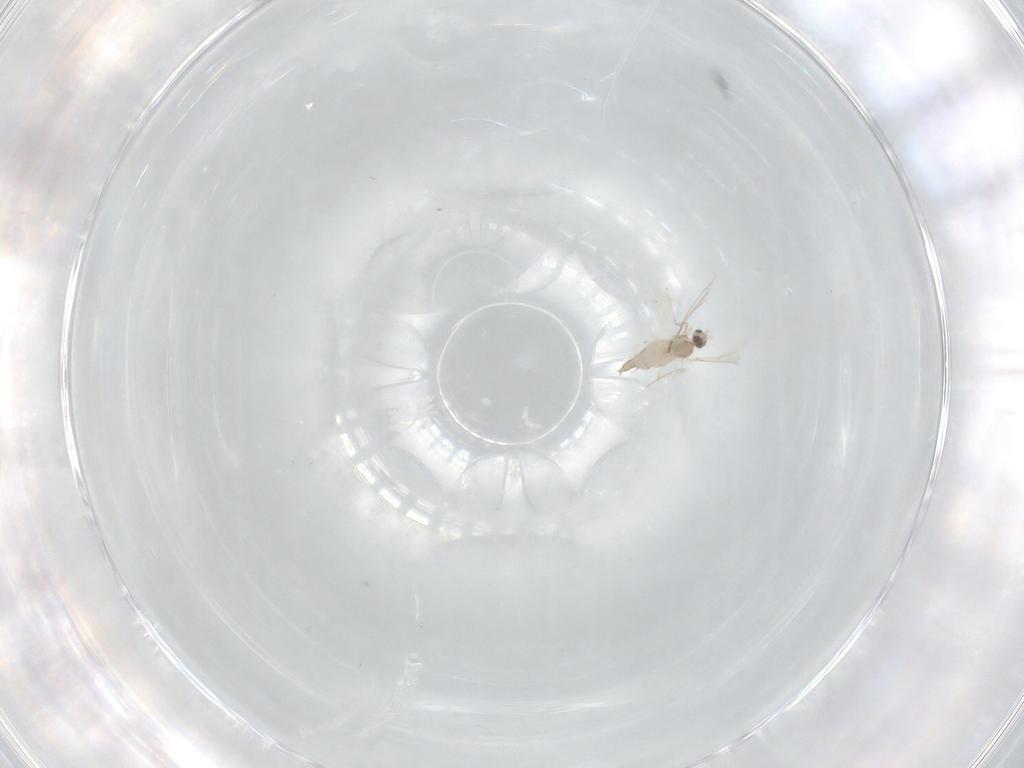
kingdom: Animalia
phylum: Arthropoda
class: Insecta
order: Diptera
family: Cecidomyiidae
